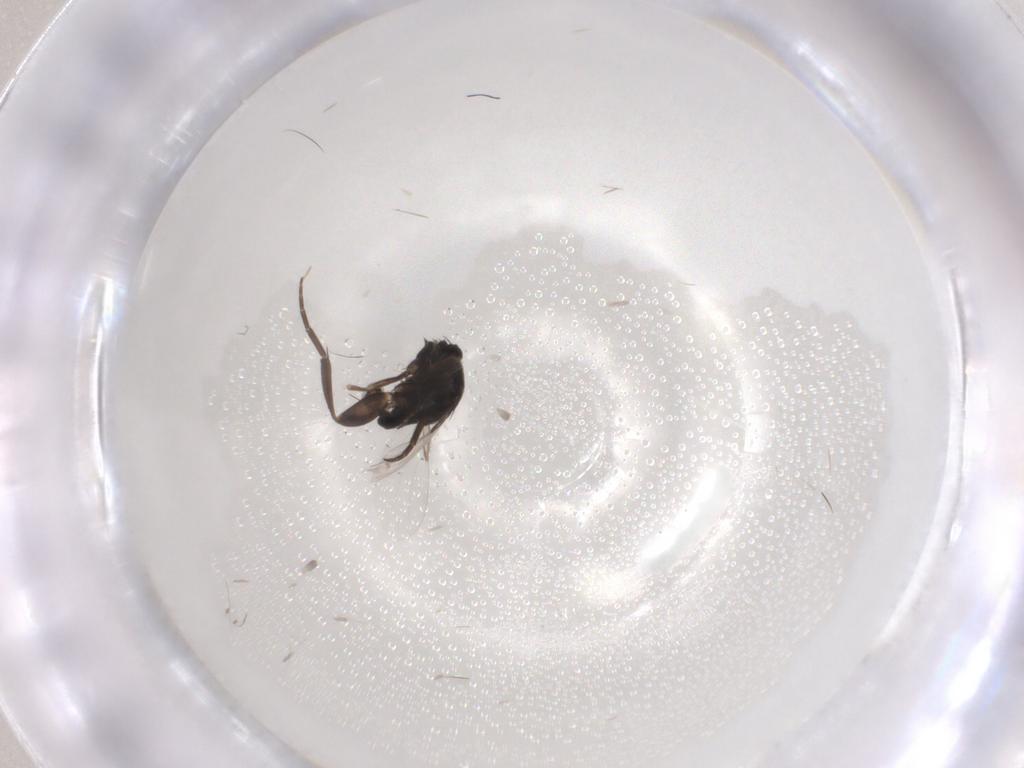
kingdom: Animalia
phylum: Arthropoda
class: Insecta
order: Diptera
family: Cecidomyiidae
